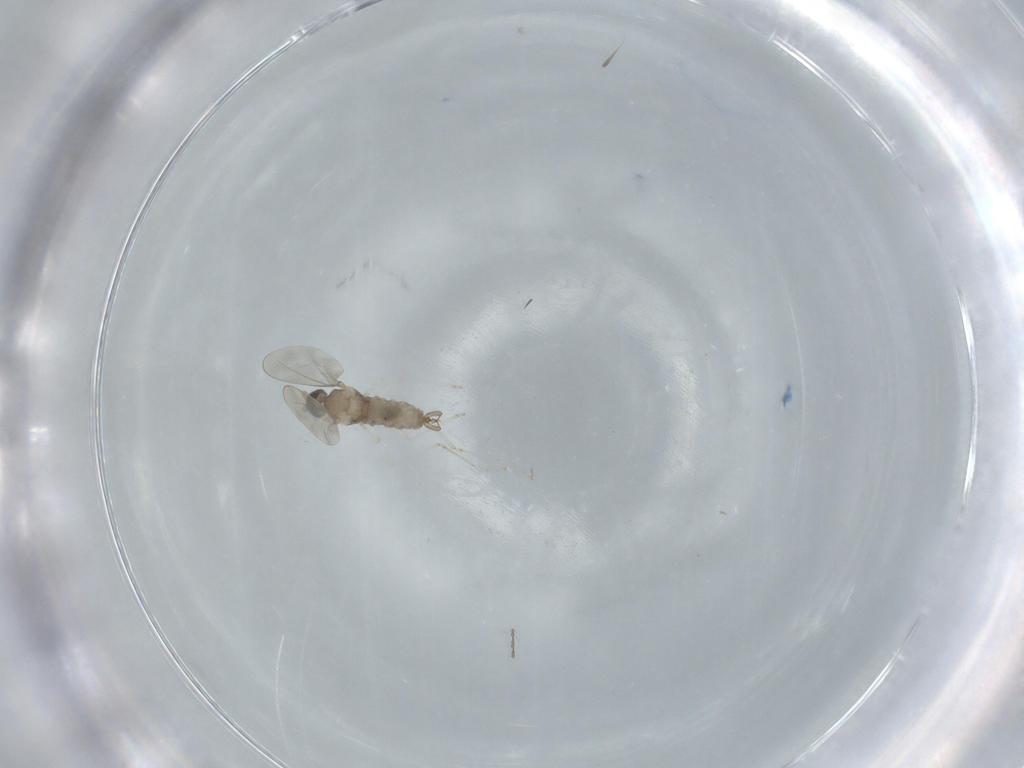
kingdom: Animalia
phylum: Arthropoda
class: Insecta
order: Diptera
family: Cecidomyiidae
